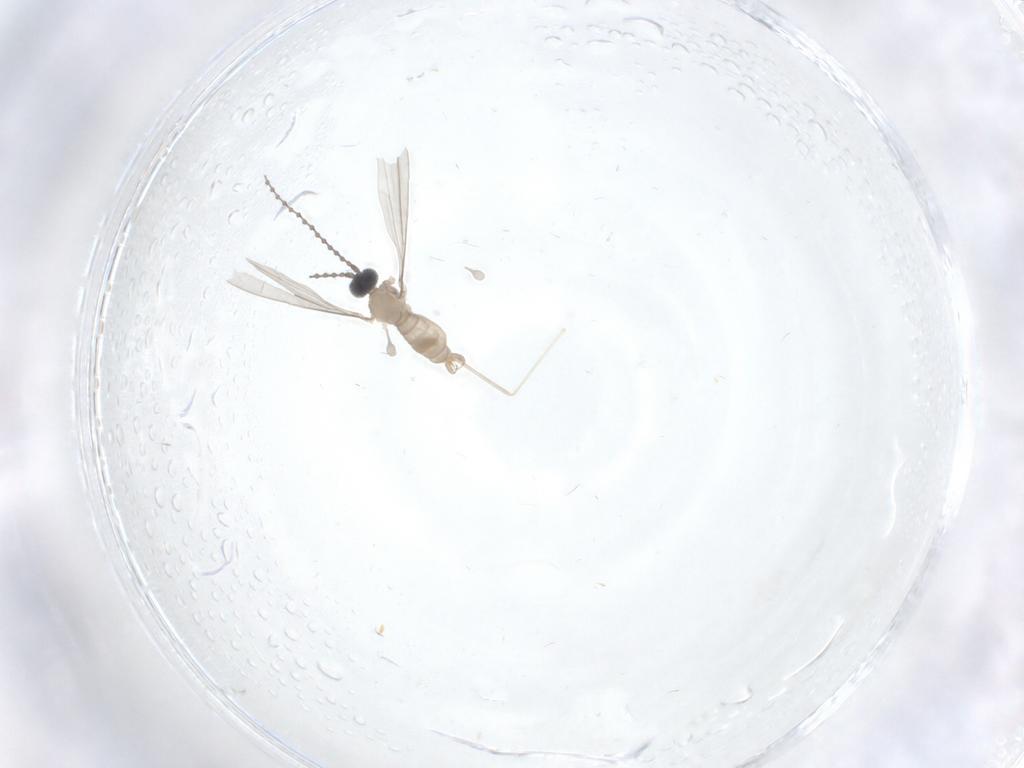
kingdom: Animalia
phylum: Arthropoda
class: Insecta
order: Diptera
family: Cecidomyiidae
